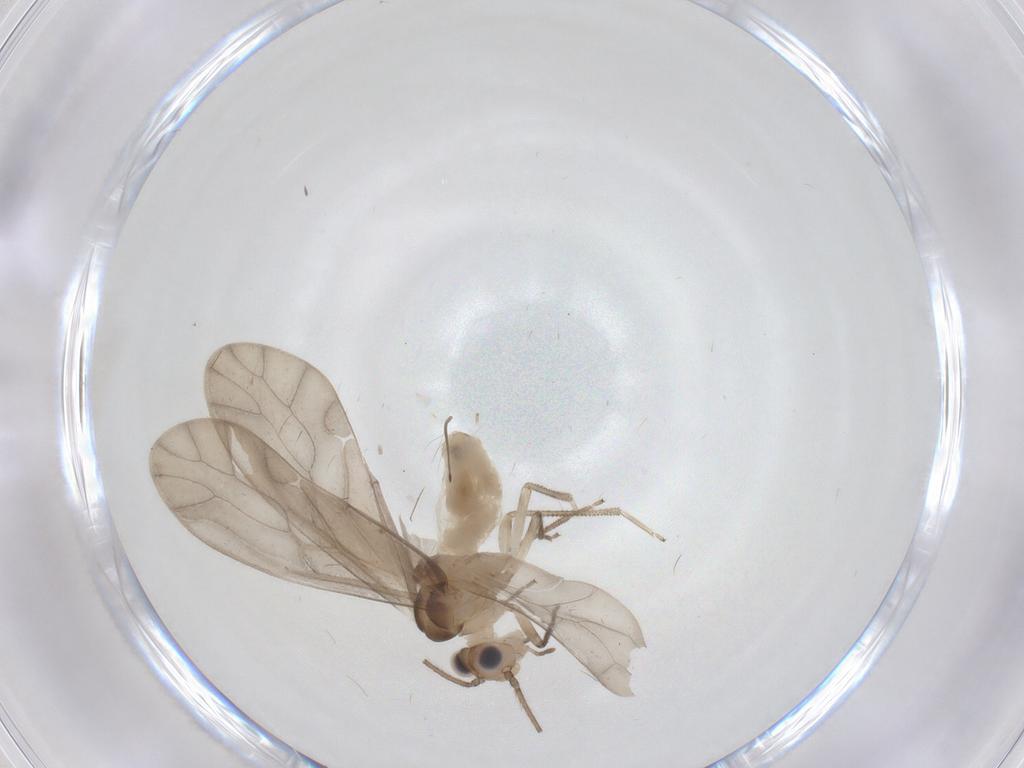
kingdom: Animalia
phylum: Arthropoda
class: Insecta
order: Psocodea
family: Caeciliusidae
